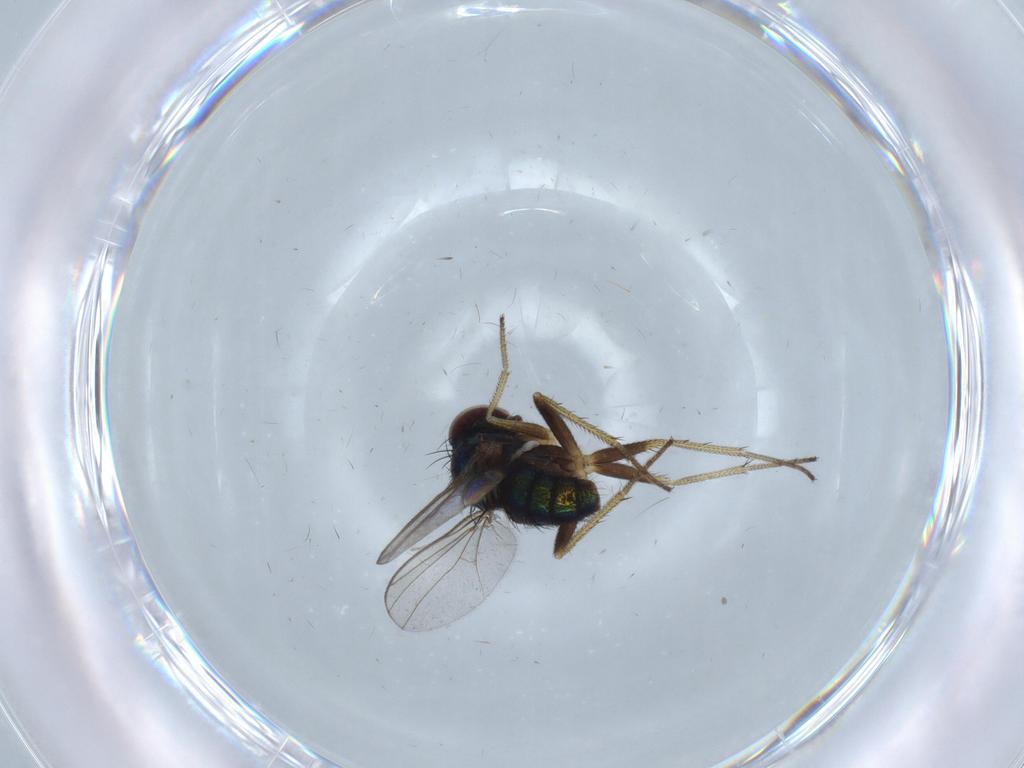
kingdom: Animalia
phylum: Arthropoda
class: Insecta
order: Diptera
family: Dolichopodidae
